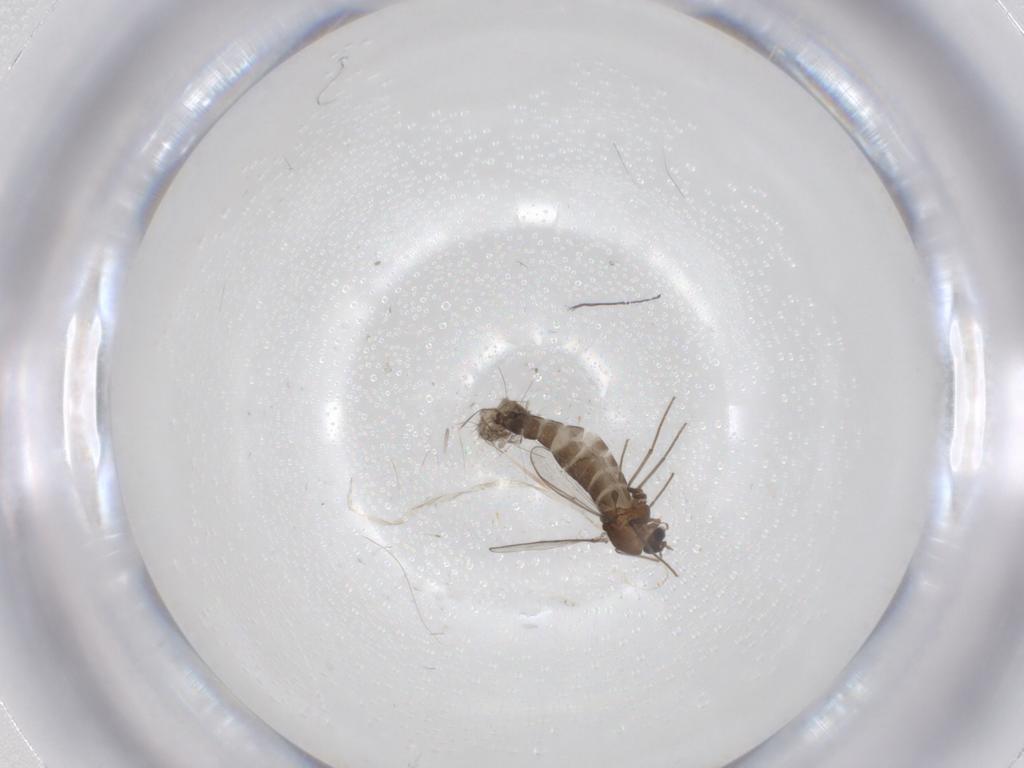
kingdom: Animalia
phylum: Arthropoda
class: Insecta
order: Diptera
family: Chironomidae
